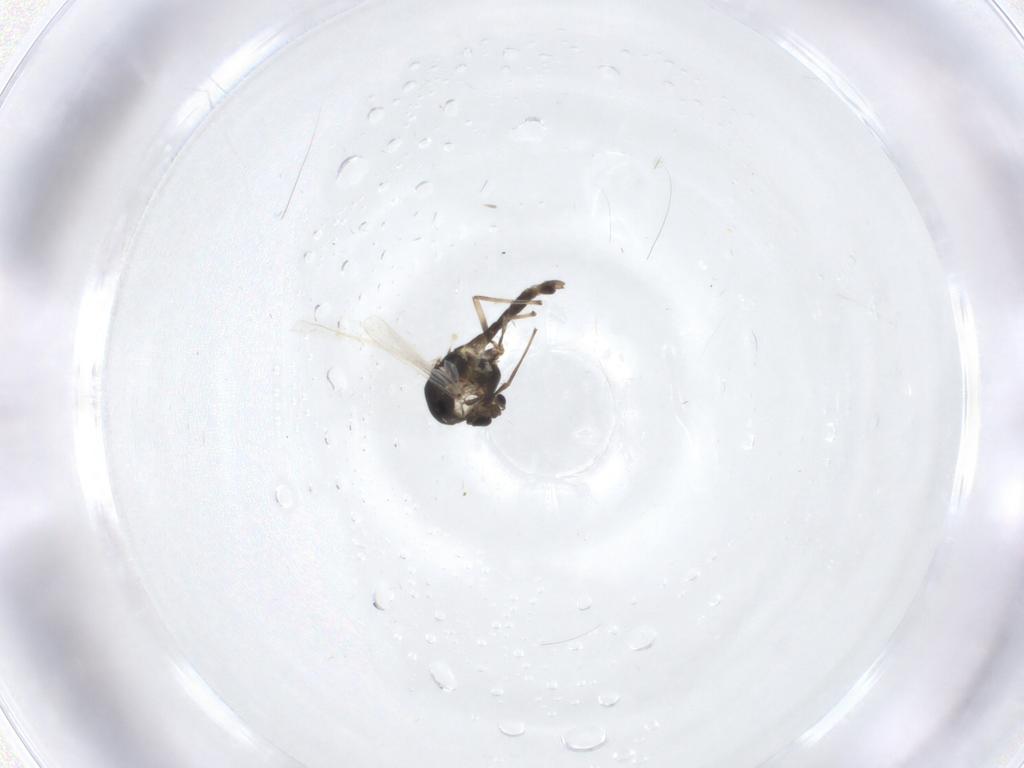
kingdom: Animalia
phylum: Arthropoda
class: Insecta
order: Diptera
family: Chironomidae
